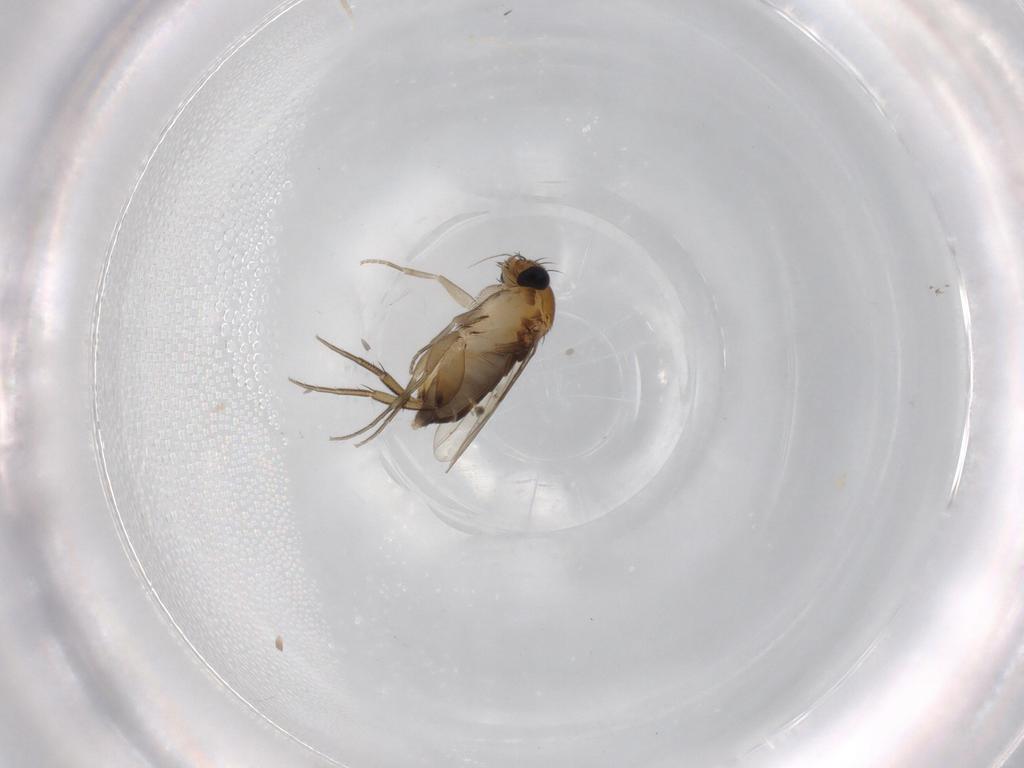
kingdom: Animalia
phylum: Arthropoda
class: Insecta
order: Diptera
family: Phoridae
